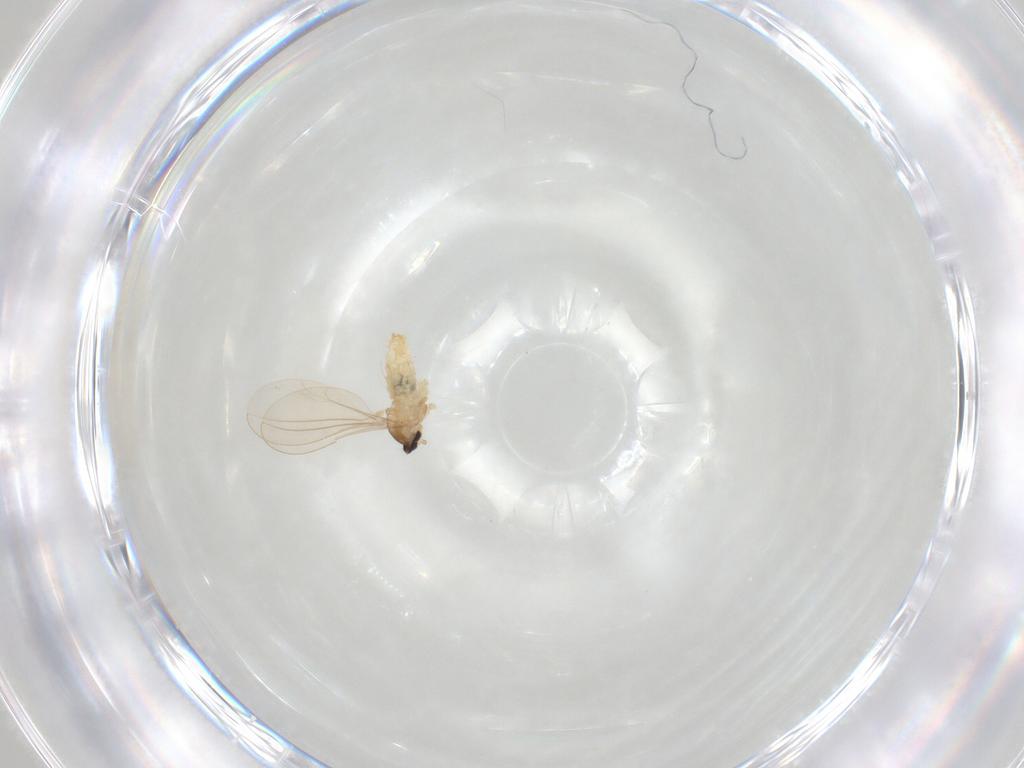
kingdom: Animalia
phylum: Arthropoda
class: Insecta
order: Diptera
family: Cecidomyiidae
